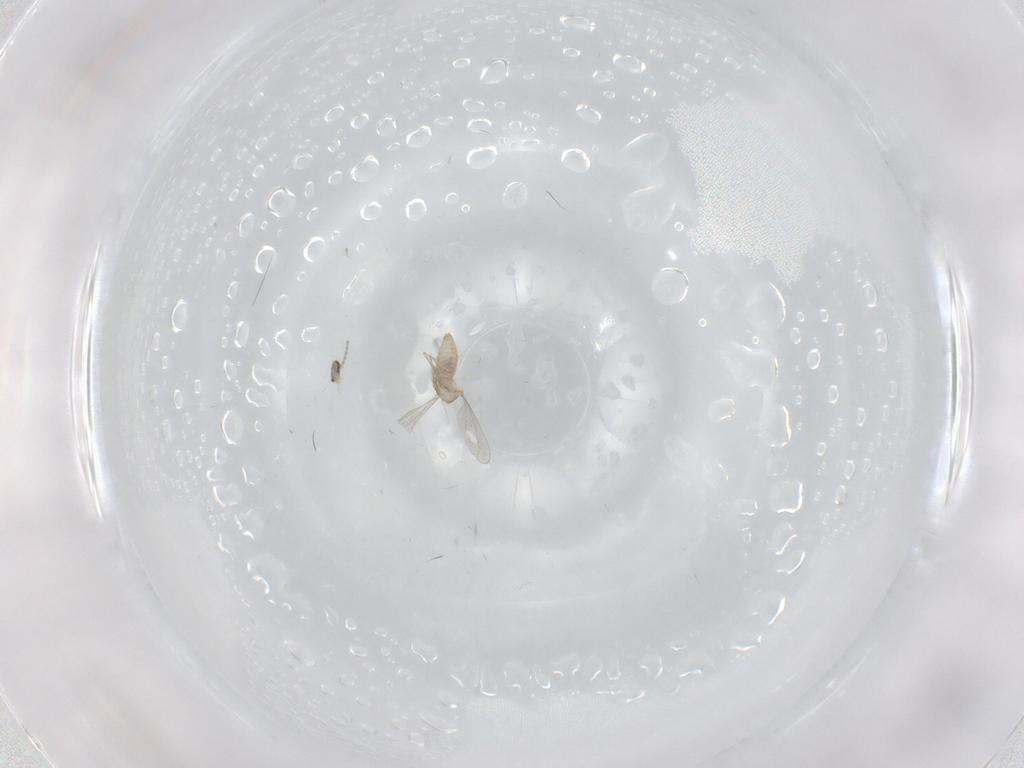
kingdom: Animalia
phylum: Arthropoda
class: Insecta
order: Diptera
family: Cecidomyiidae
